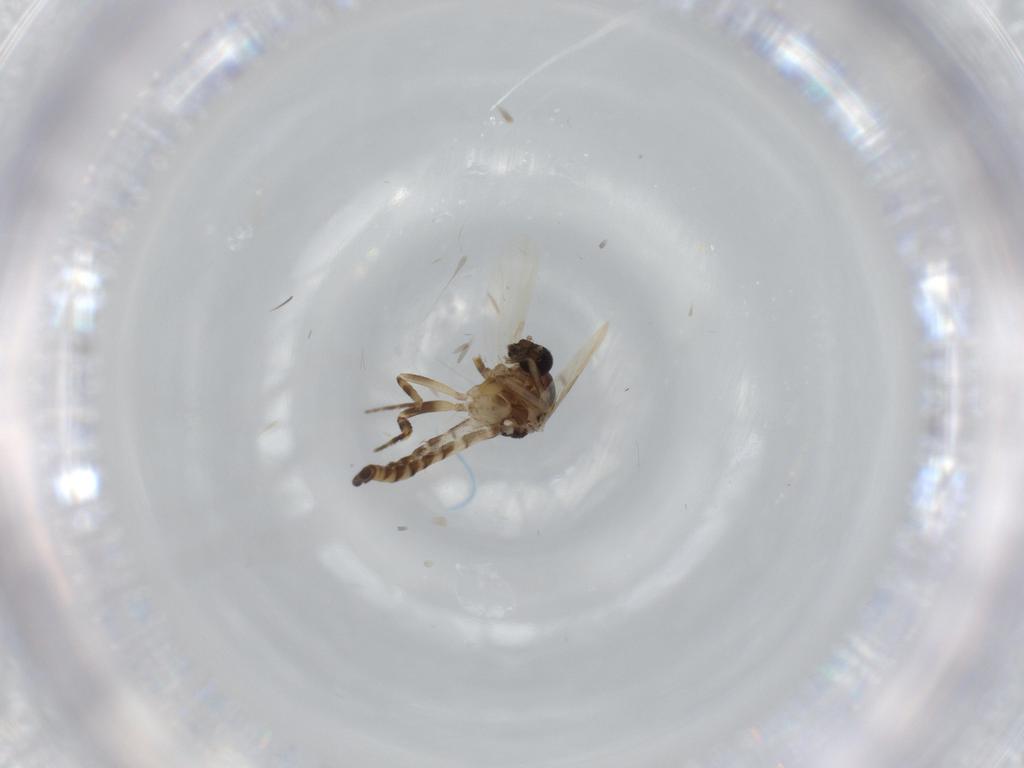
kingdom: Animalia
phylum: Arthropoda
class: Insecta
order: Diptera
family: Ceratopogonidae
